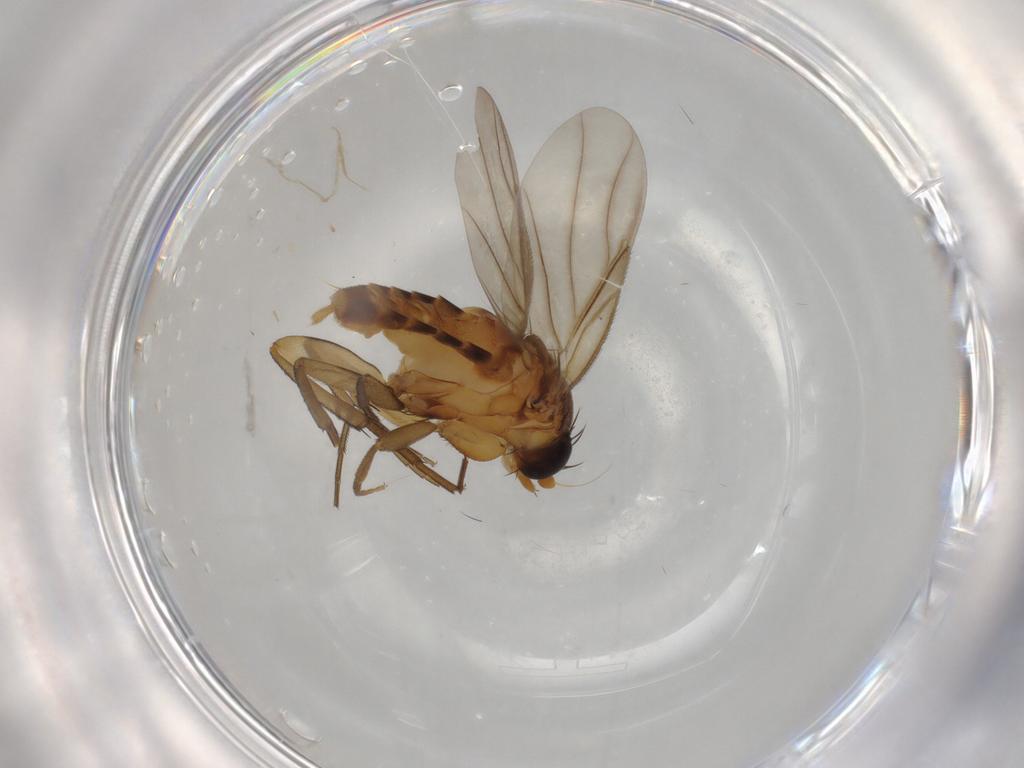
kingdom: Animalia
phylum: Arthropoda
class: Insecta
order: Diptera
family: Phoridae
